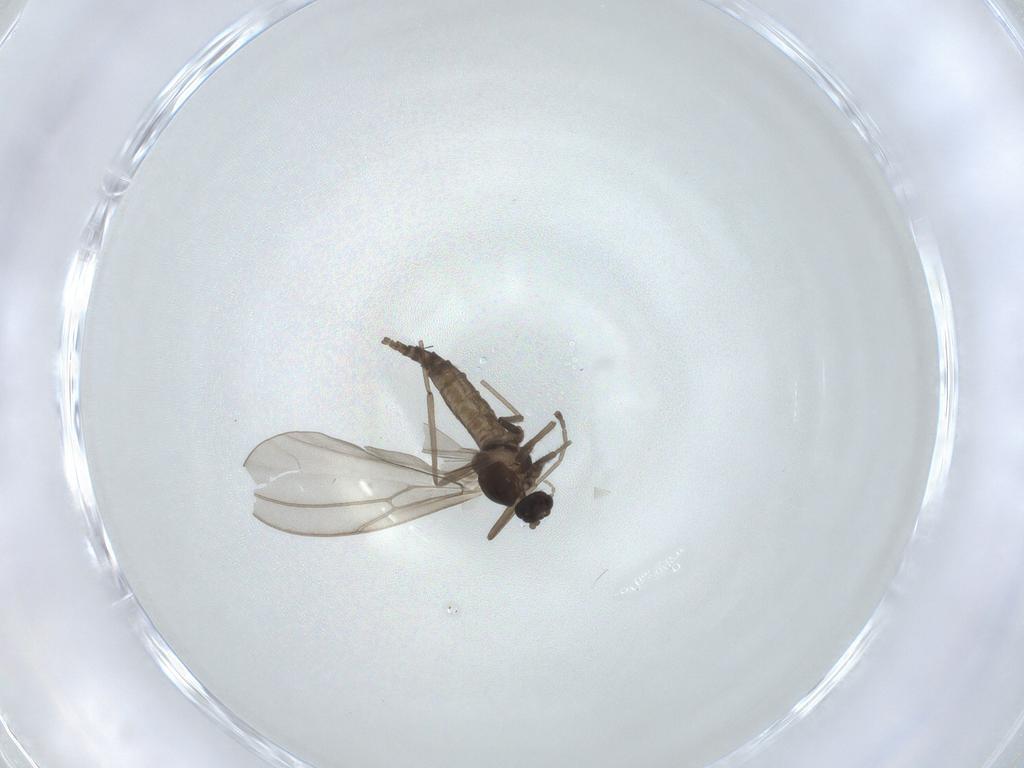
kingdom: Animalia
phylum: Arthropoda
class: Insecta
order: Diptera
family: Cecidomyiidae
